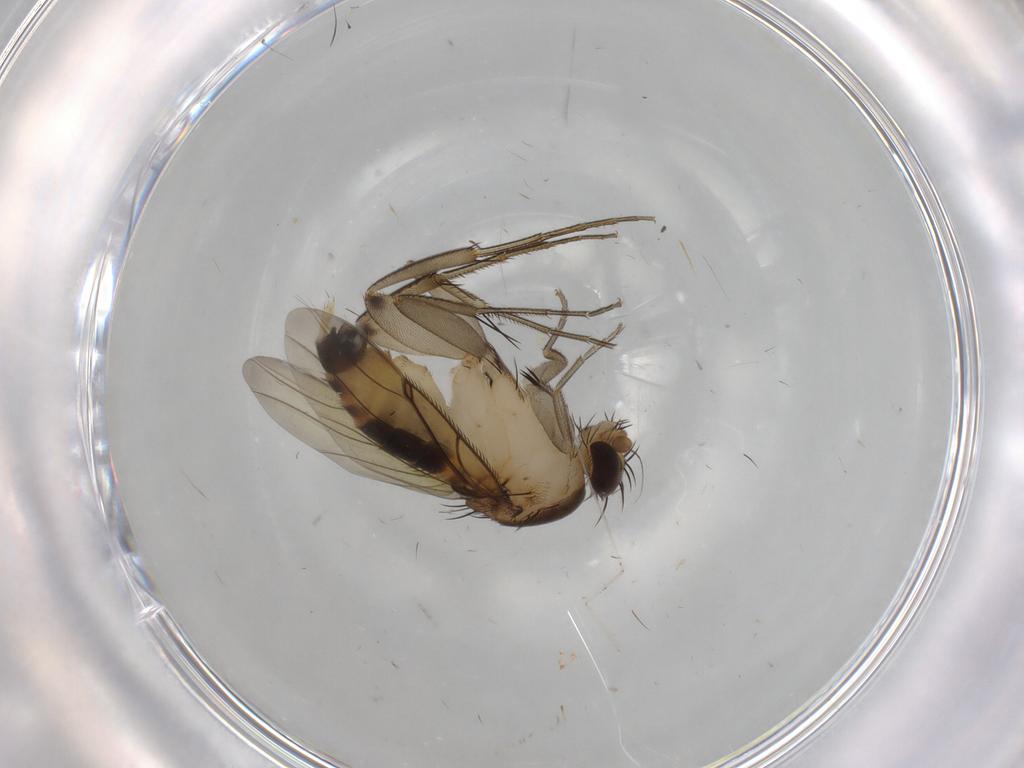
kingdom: Animalia
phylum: Arthropoda
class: Insecta
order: Diptera
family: Phoridae
